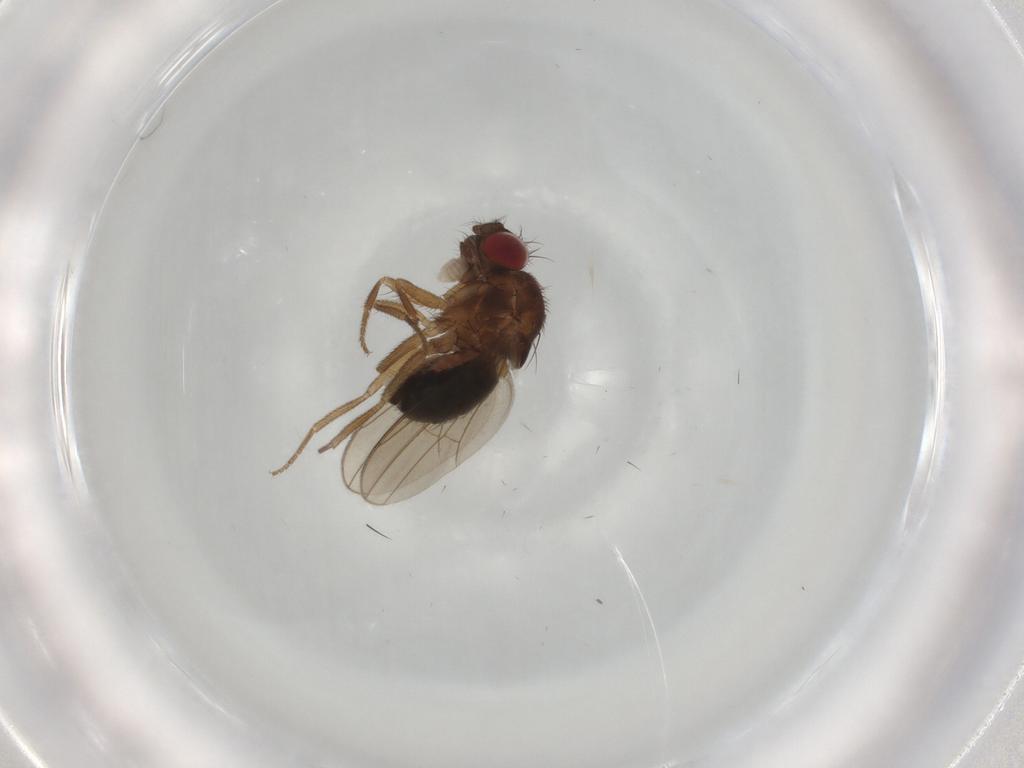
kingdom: Animalia
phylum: Arthropoda
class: Insecta
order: Diptera
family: Drosophilidae
